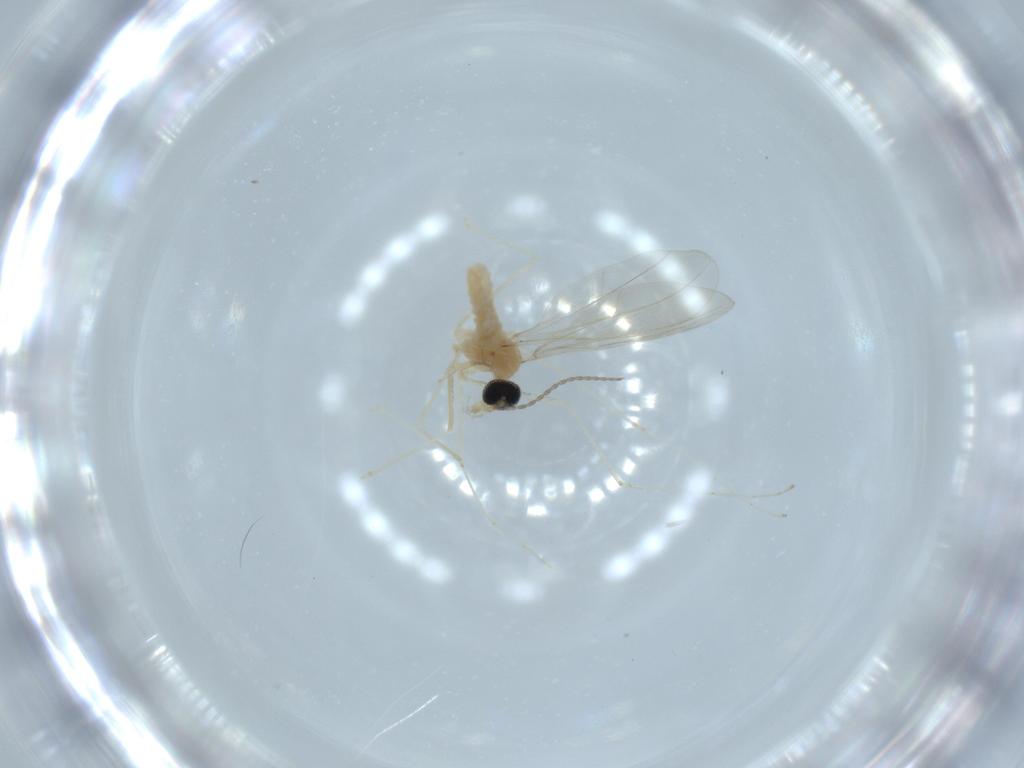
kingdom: Animalia
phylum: Arthropoda
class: Insecta
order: Diptera
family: Cecidomyiidae
